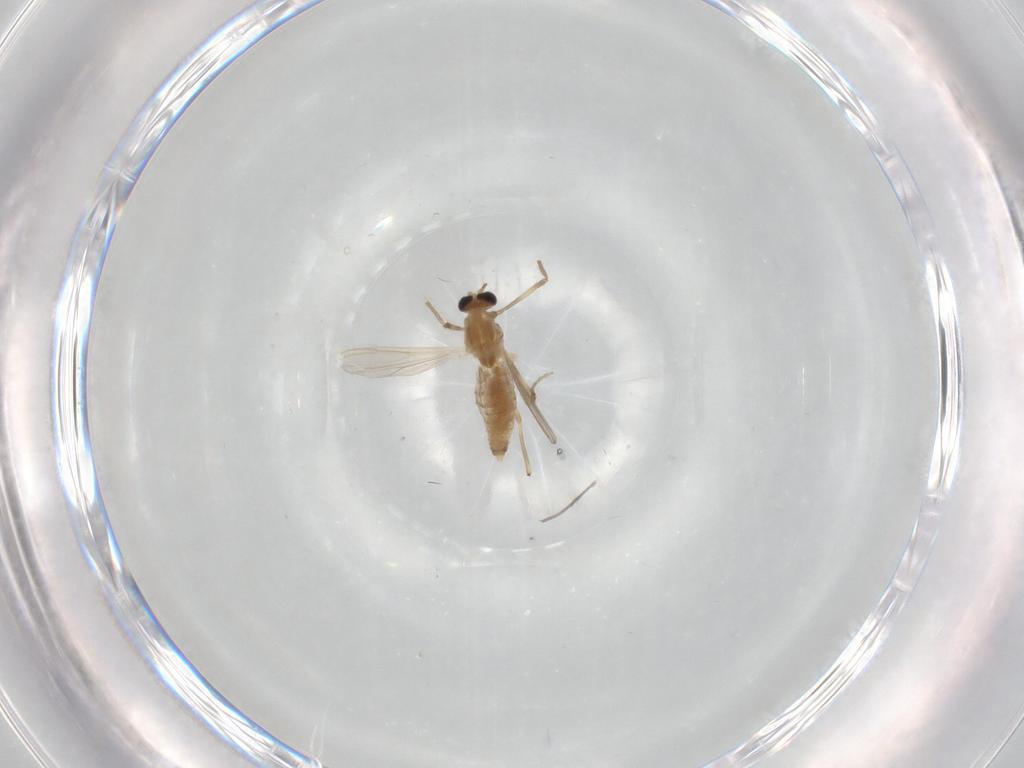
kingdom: Animalia
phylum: Arthropoda
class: Insecta
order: Diptera
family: Chironomidae
